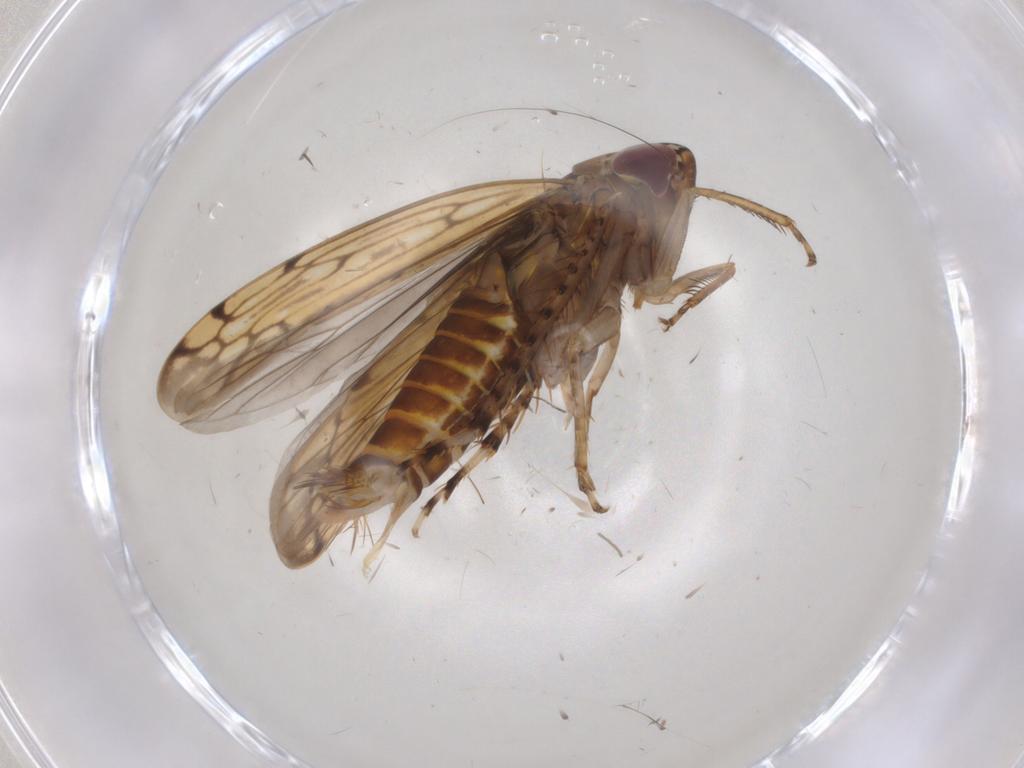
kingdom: Animalia
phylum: Arthropoda
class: Insecta
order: Hemiptera
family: Cicadellidae
